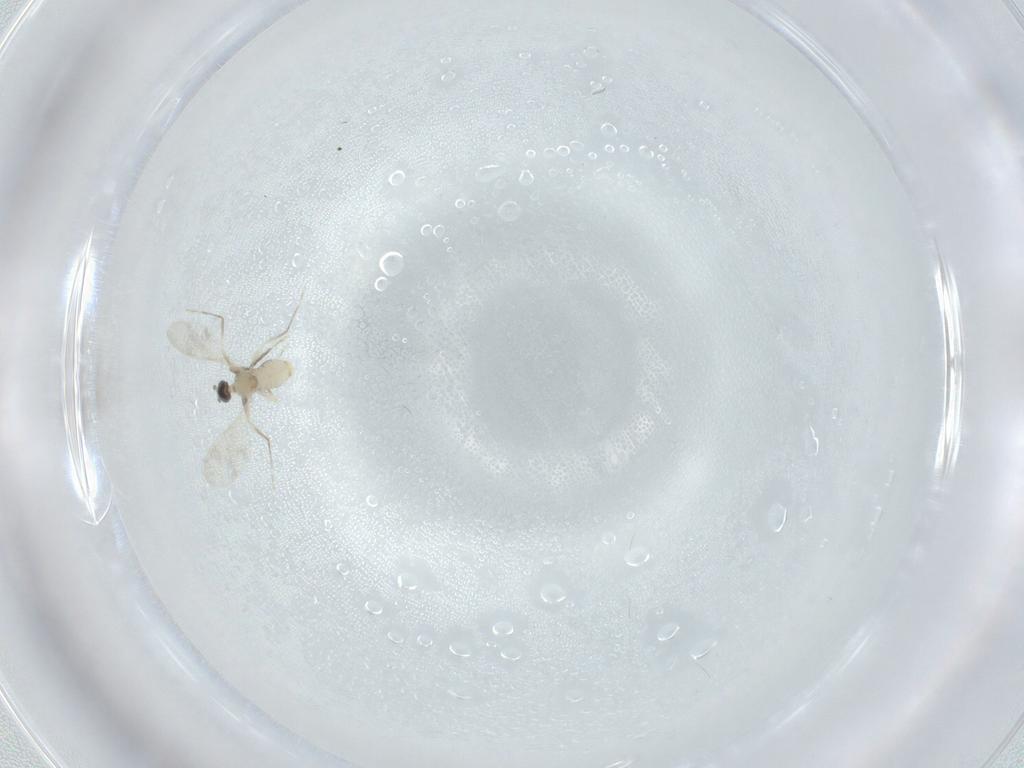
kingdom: Animalia
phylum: Arthropoda
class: Insecta
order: Diptera
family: Cecidomyiidae
